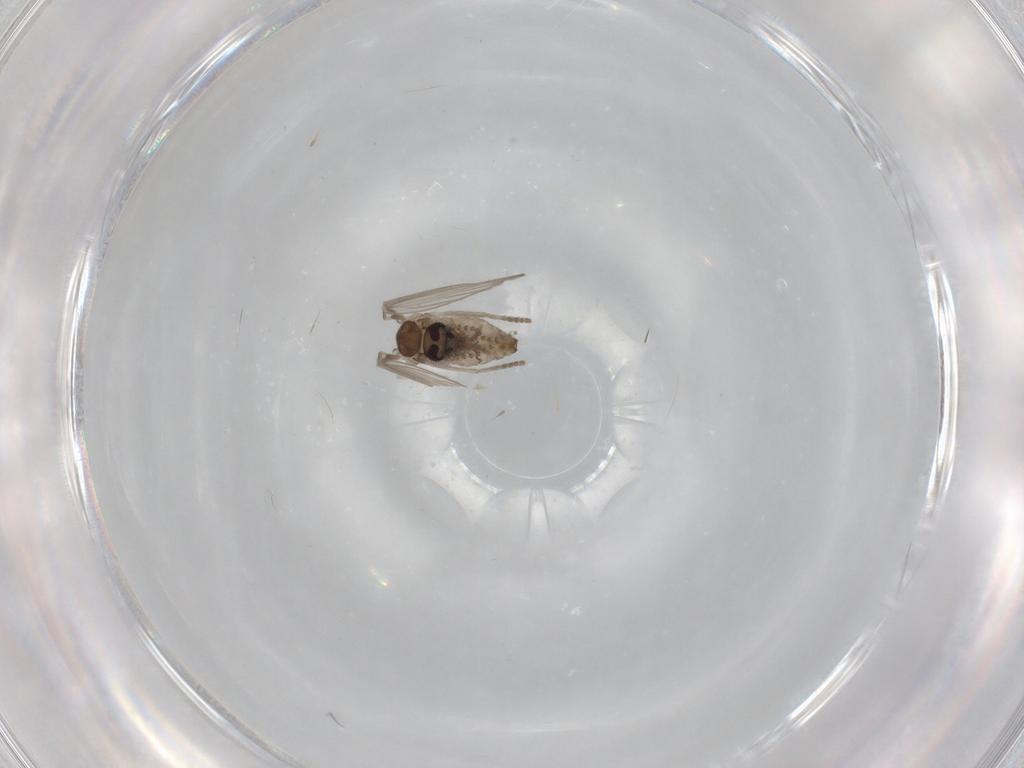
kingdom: Animalia
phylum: Arthropoda
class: Insecta
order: Diptera
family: Psychodidae
